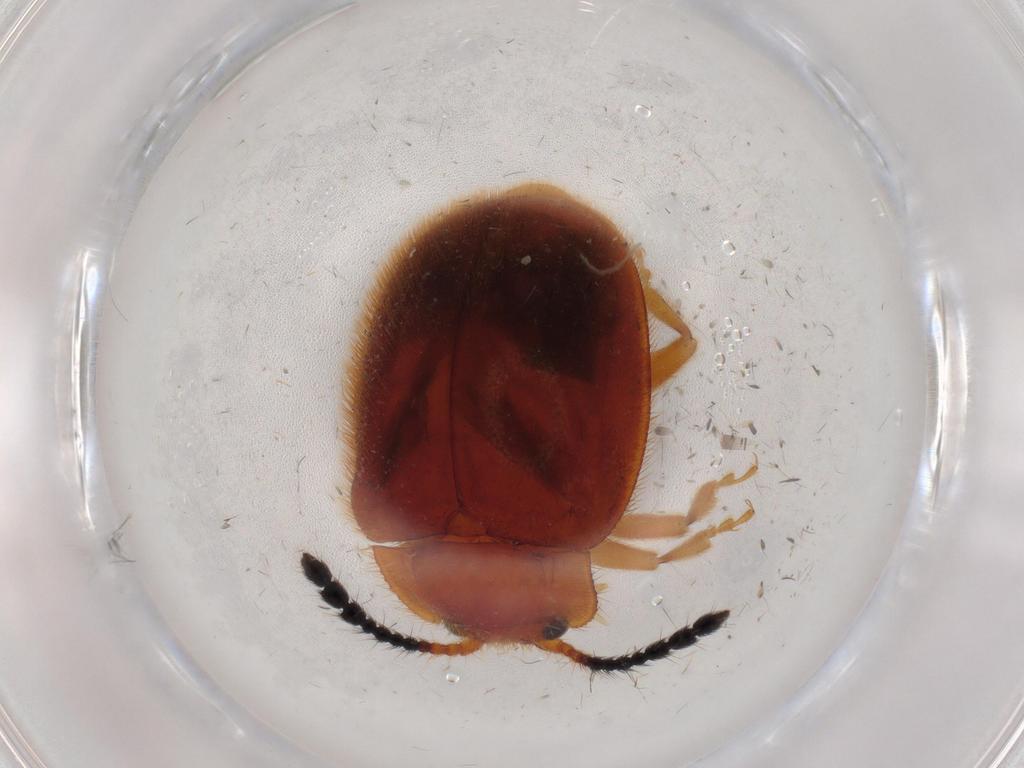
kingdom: Animalia
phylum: Arthropoda
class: Insecta
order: Coleoptera
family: Endomychidae
